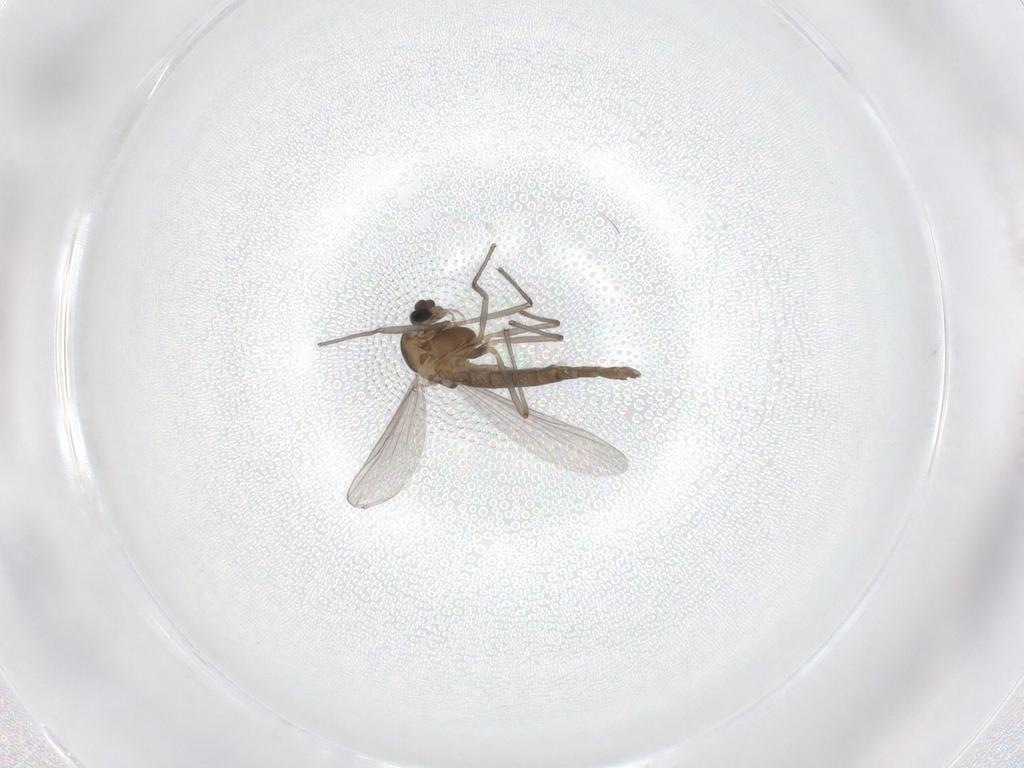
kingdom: Animalia
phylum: Arthropoda
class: Insecta
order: Diptera
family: Chironomidae
